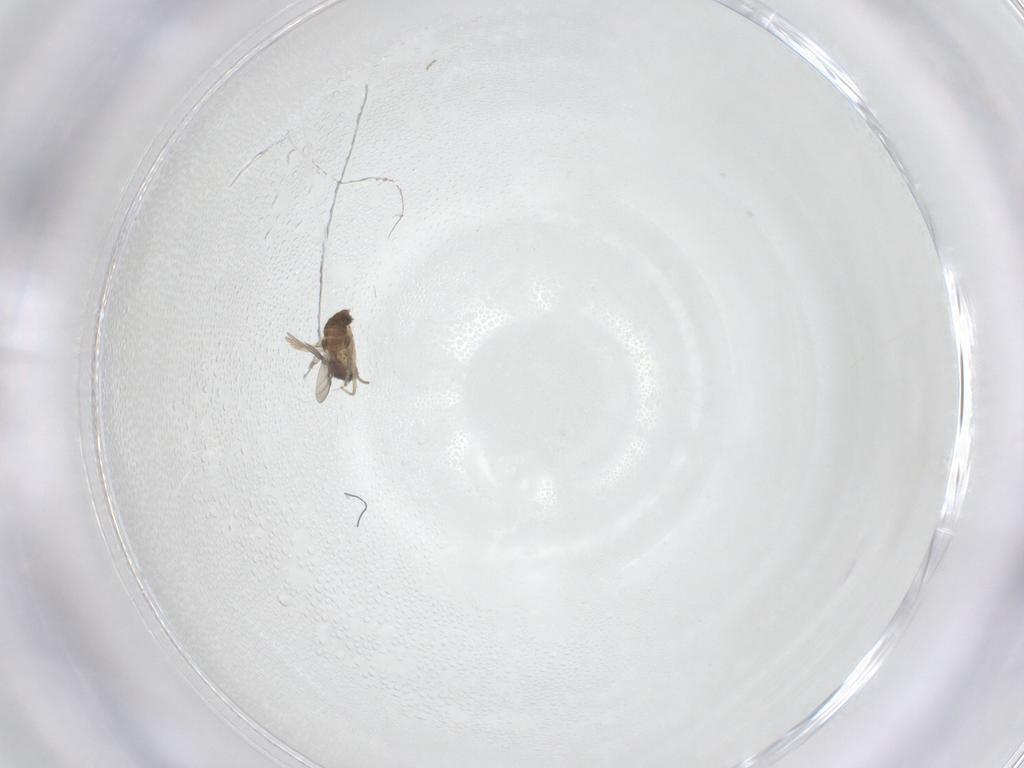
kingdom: Animalia
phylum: Arthropoda
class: Insecta
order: Diptera
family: Phoridae
